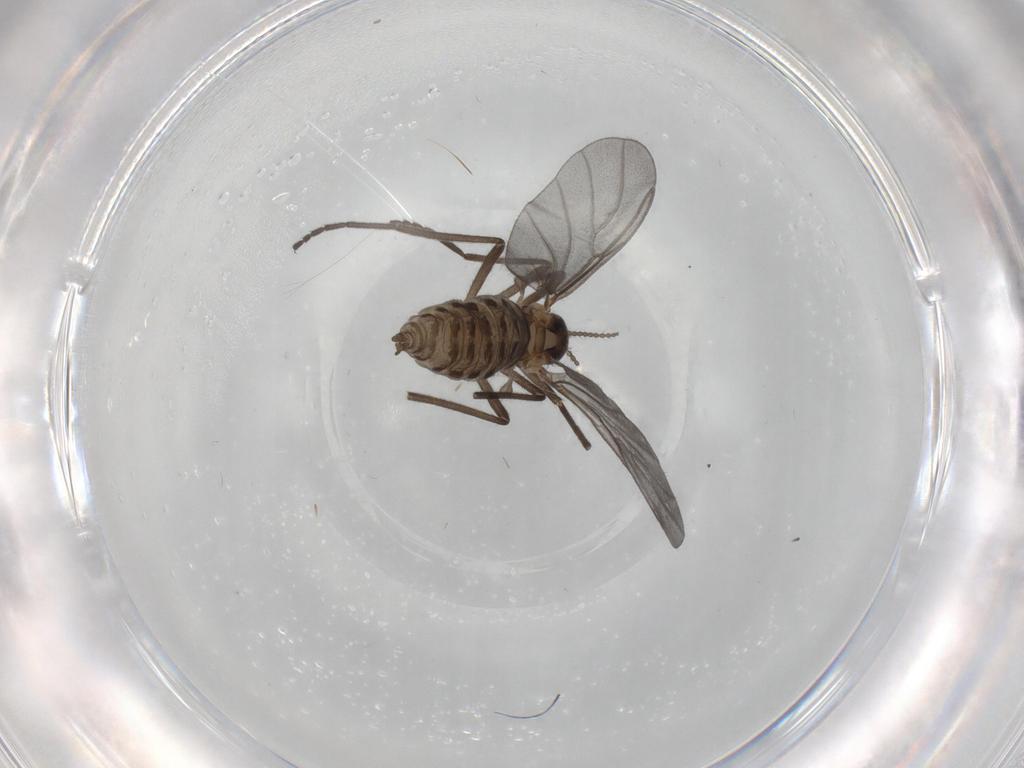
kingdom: Animalia
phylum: Arthropoda
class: Insecta
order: Diptera
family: Cecidomyiidae
